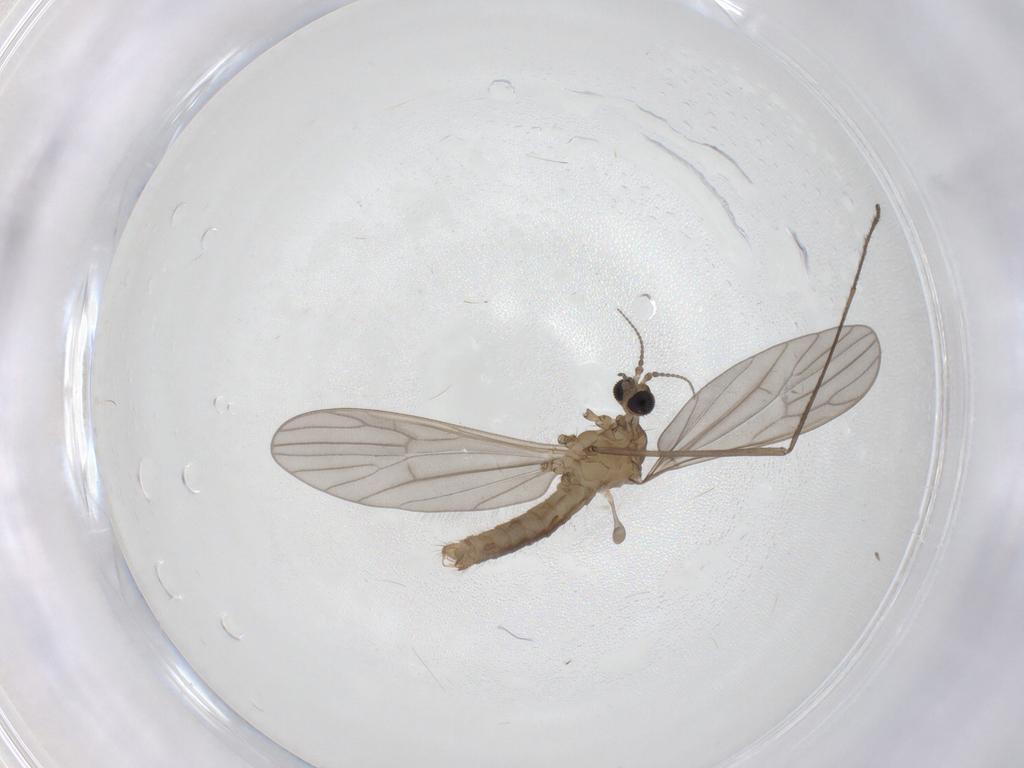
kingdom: Animalia
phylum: Arthropoda
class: Insecta
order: Diptera
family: Limoniidae
